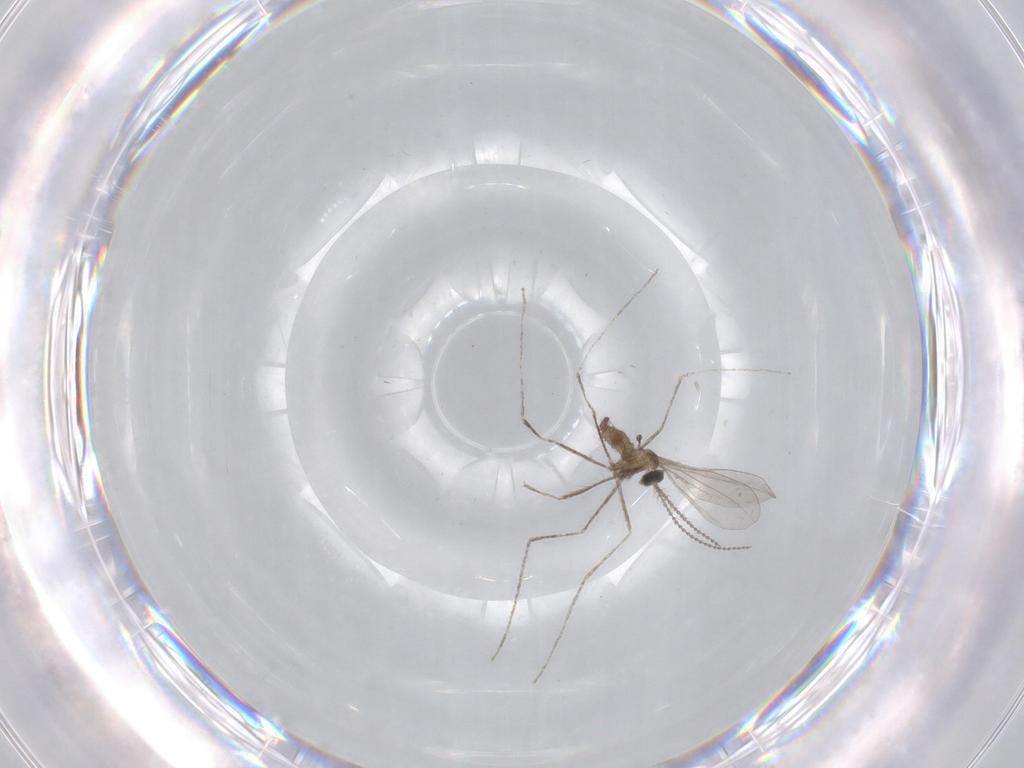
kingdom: Animalia
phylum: Arthropoda
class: Insecta
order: Diptera
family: Cecidomyiidae
